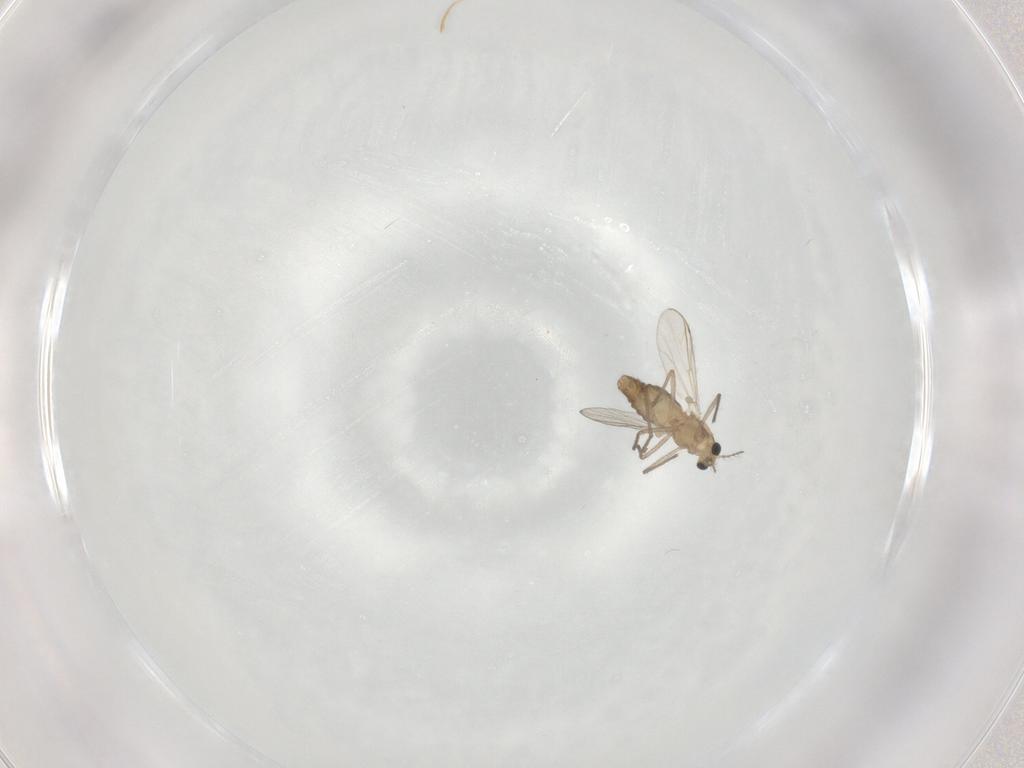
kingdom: Animalia
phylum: Arthropoda
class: Insecta
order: Diptera
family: Chironomidae
